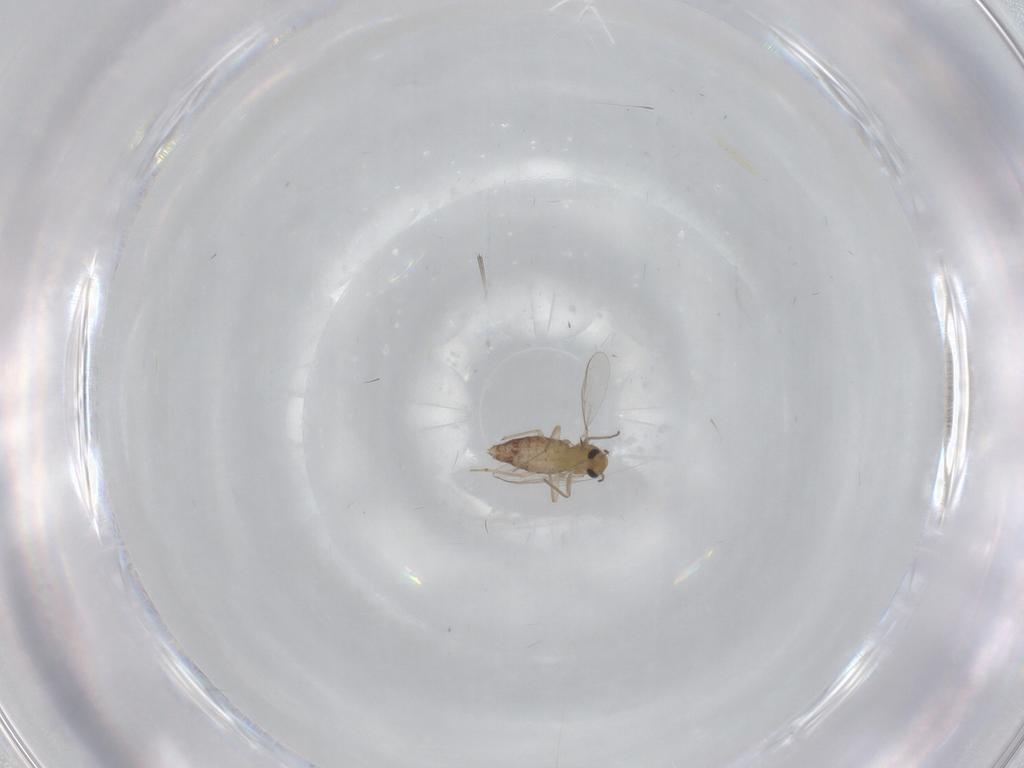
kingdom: Animalia
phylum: Arthropoda
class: Insecta
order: Diptera
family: Chironomidae
